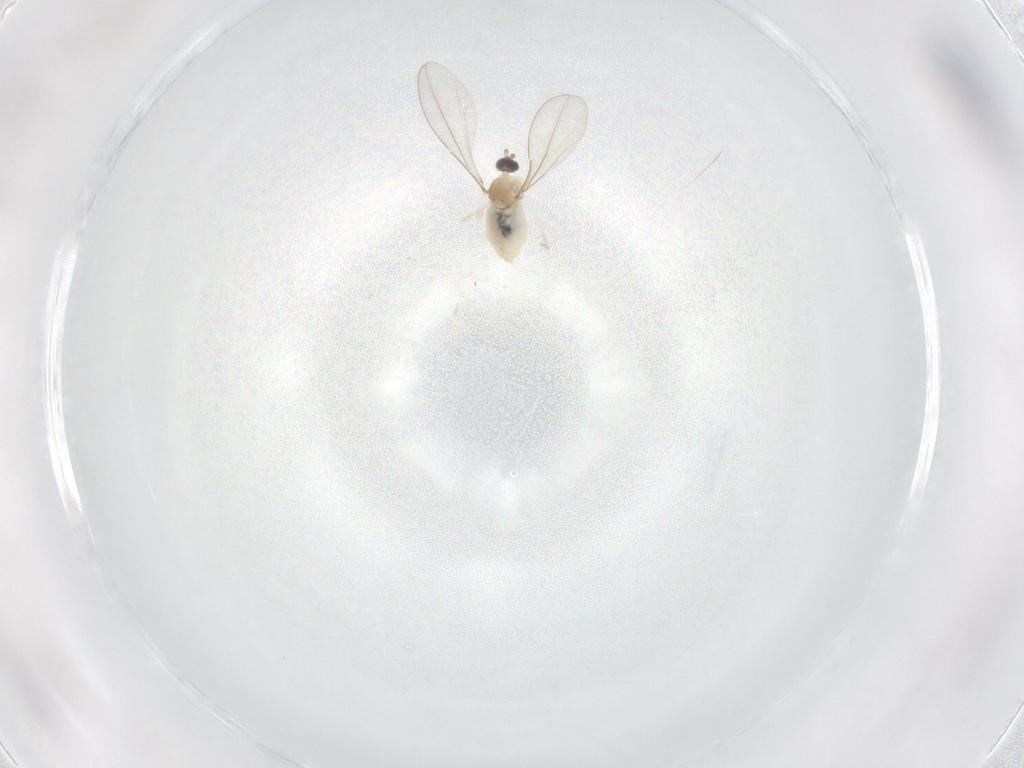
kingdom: Animalia
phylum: Arthropoda
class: Insecta
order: Diptera
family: Cecidomyiidae
